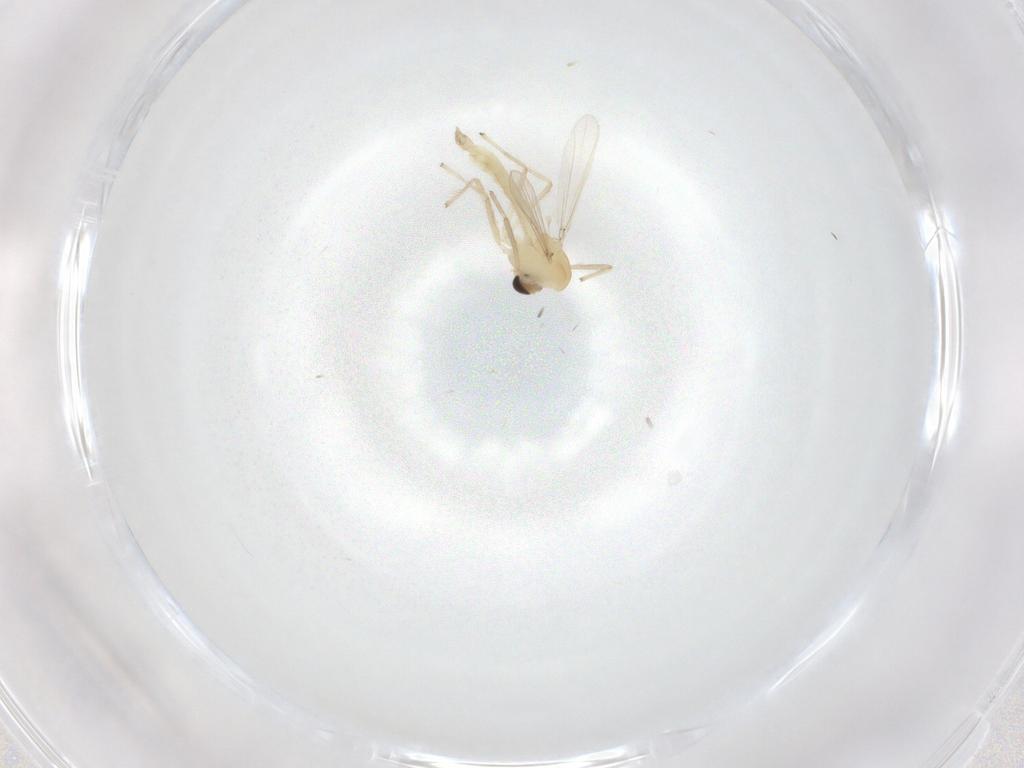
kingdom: Animalia
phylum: Arthropoda
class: Insecta
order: Diptera
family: Chironomidae
